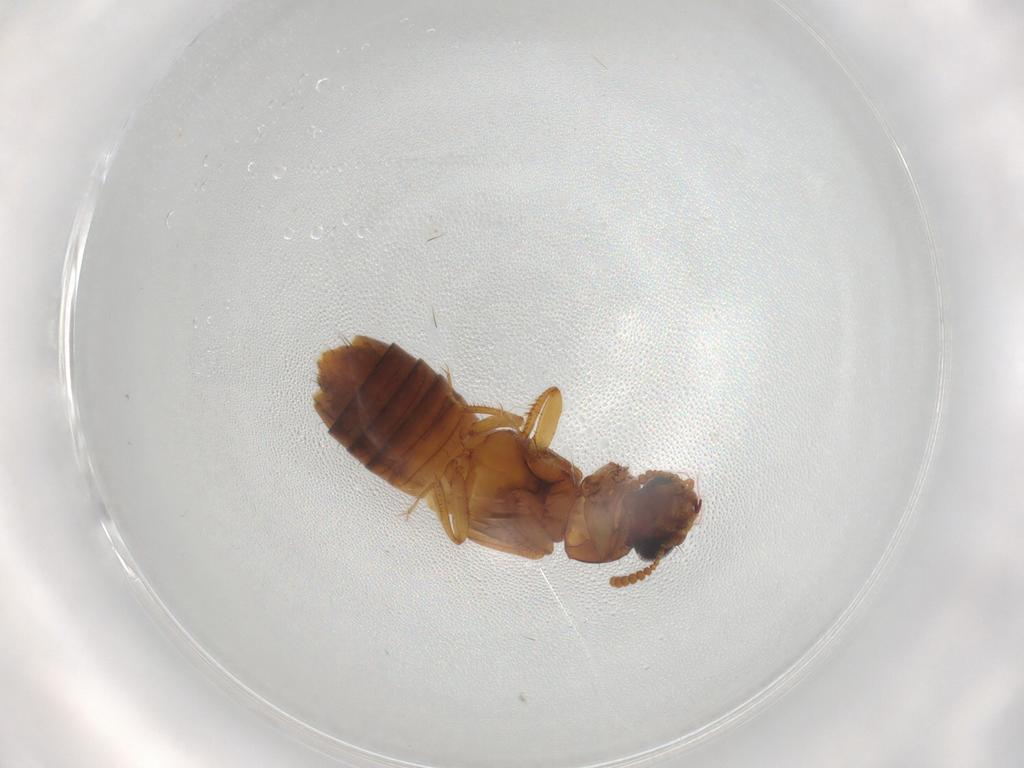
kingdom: Animalia
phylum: Arthropoda
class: Insecta
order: Coleoptera
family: Staphylinidae
